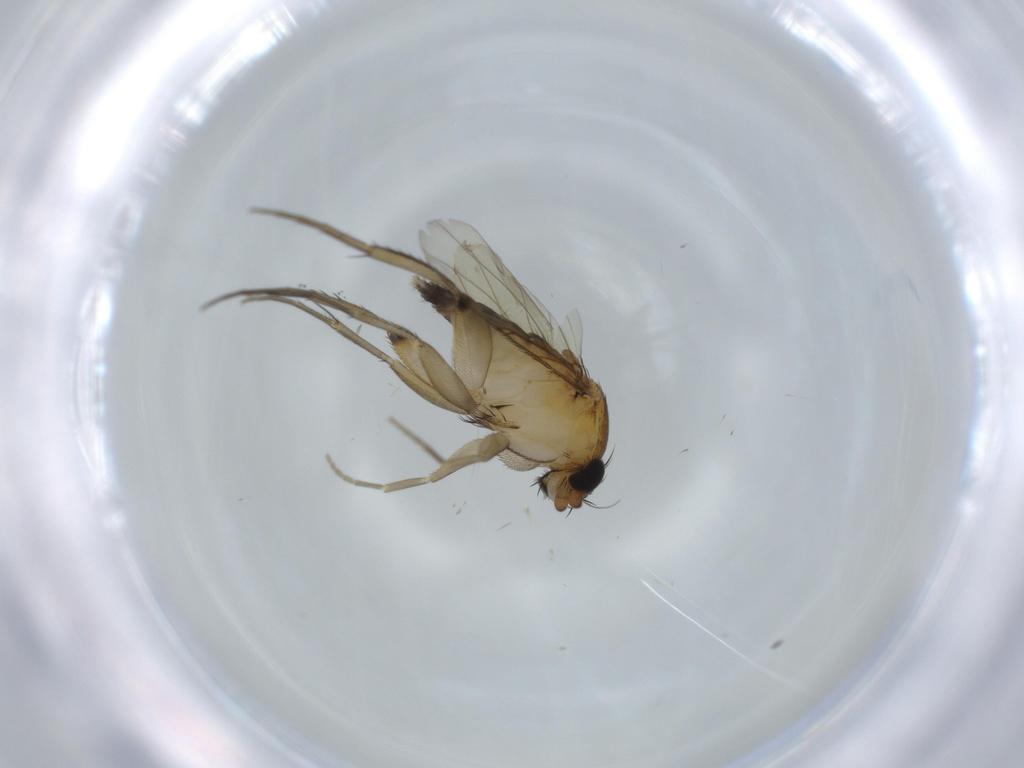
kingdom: Animalia
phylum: Arthropoda
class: Insecta
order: Diptera
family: Phoridae
